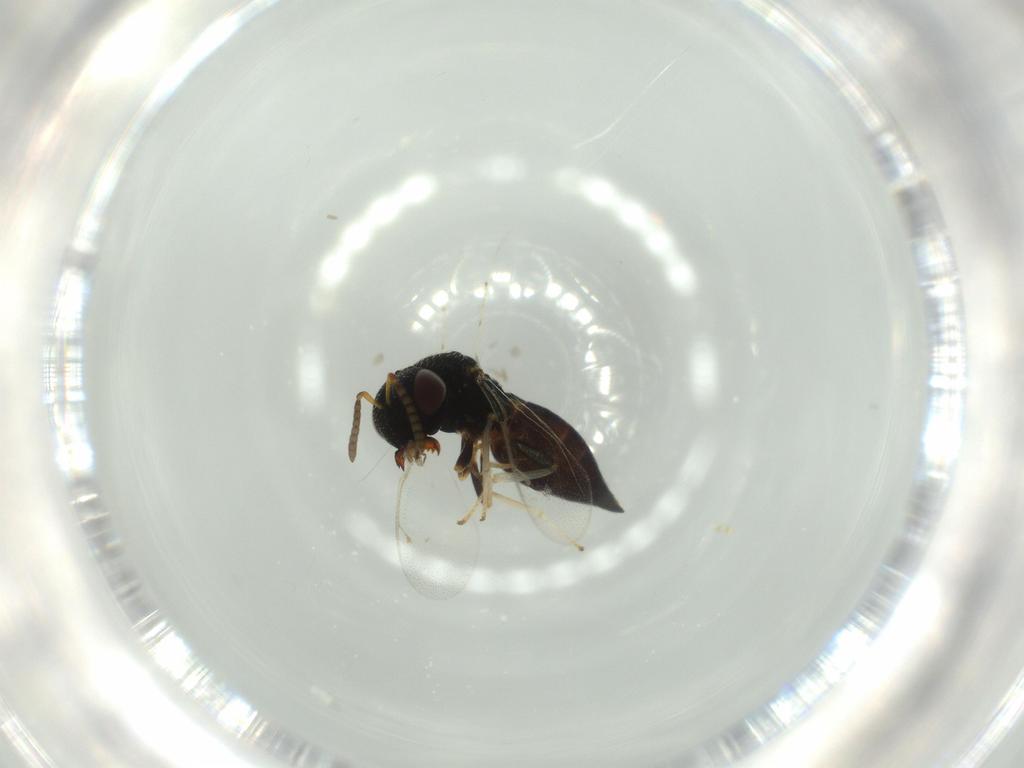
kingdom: Animalia
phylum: Arthropoda
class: Insecta
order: Hymenoptera
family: Pteromalidae
